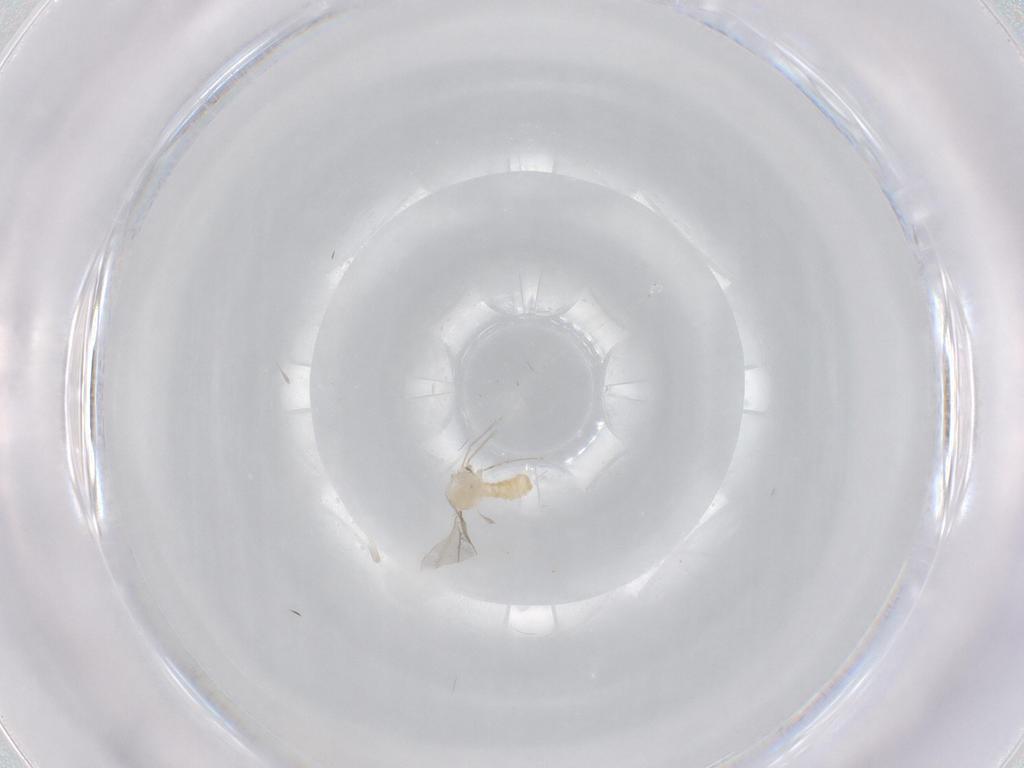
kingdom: Animalia
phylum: Arthropoda
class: Insecta
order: Diptera
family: Cecidomyiidae
